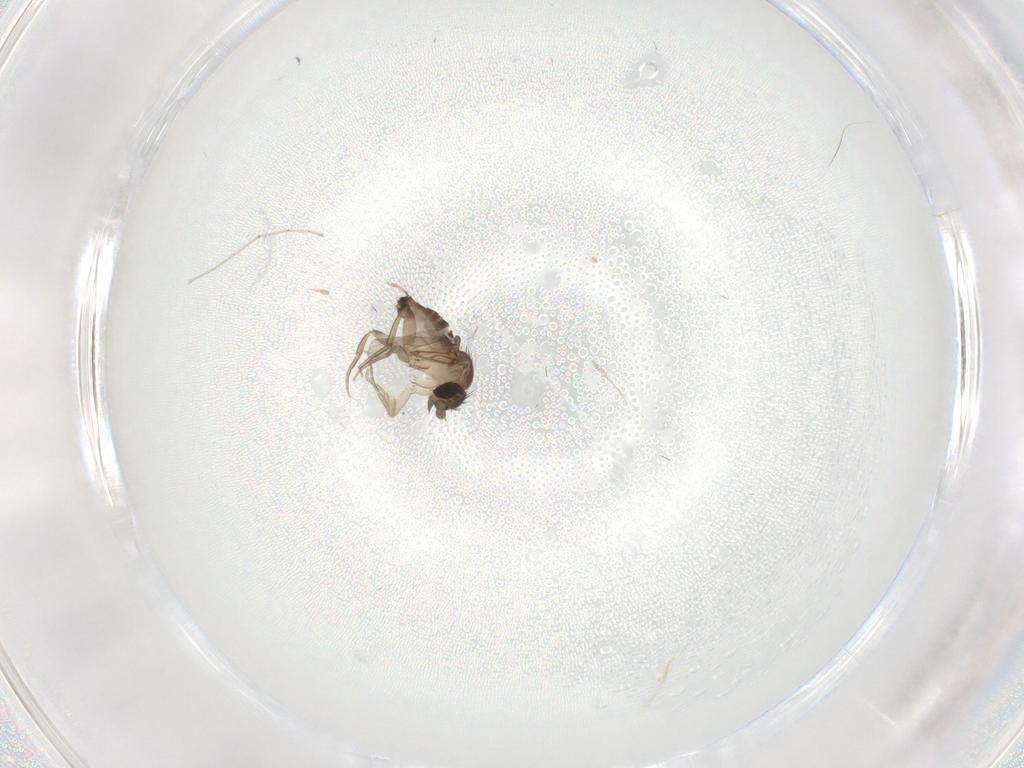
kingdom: Animalia
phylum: Arthropoda
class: Insecta
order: Diptera
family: Phoridae
